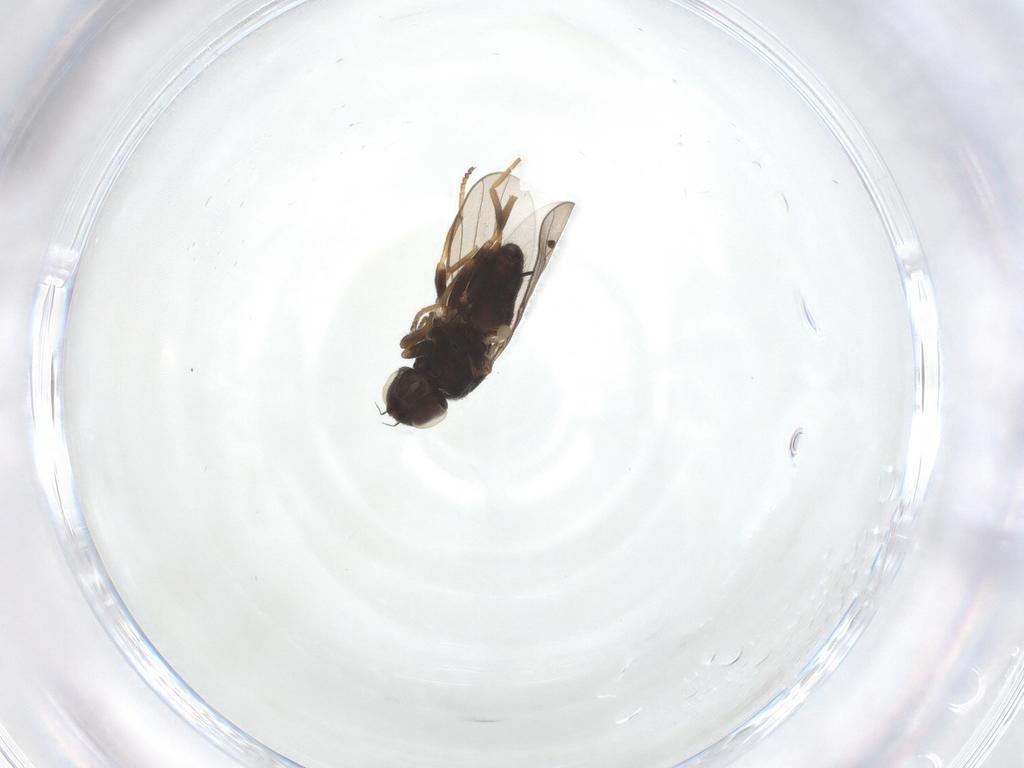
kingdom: Animalia
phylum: Arthropoda
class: Insecta
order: Diptera
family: Chloropidae
